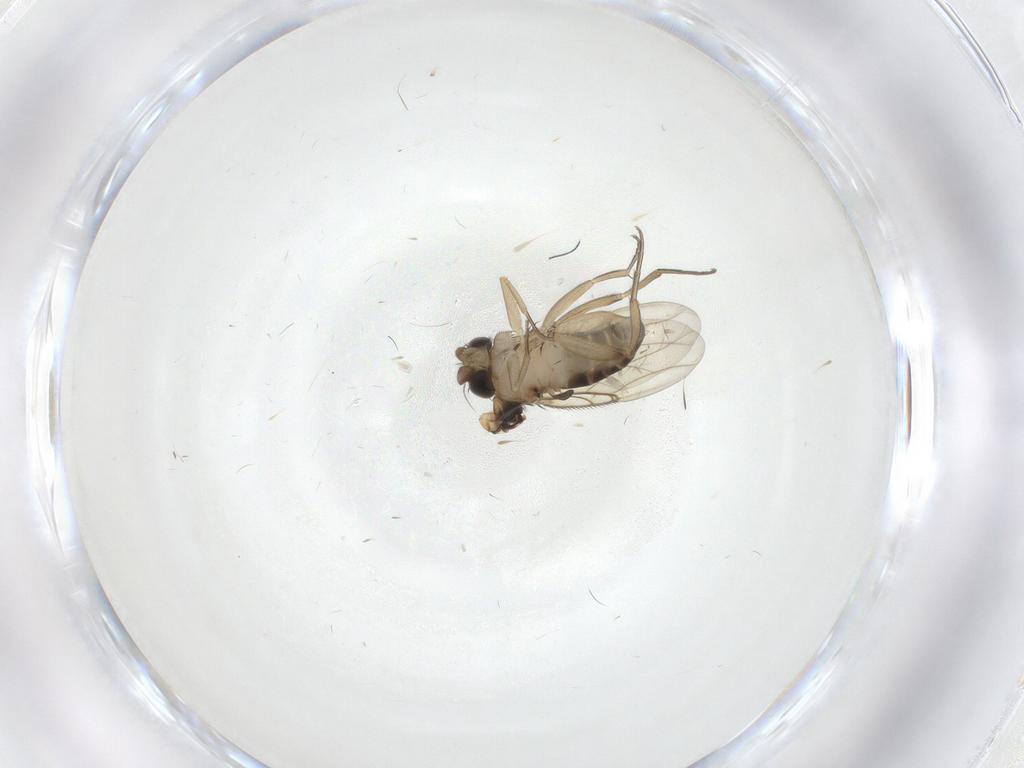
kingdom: Animalia
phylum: Arthropoda
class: Insecta
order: Diptera
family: Phoridae
